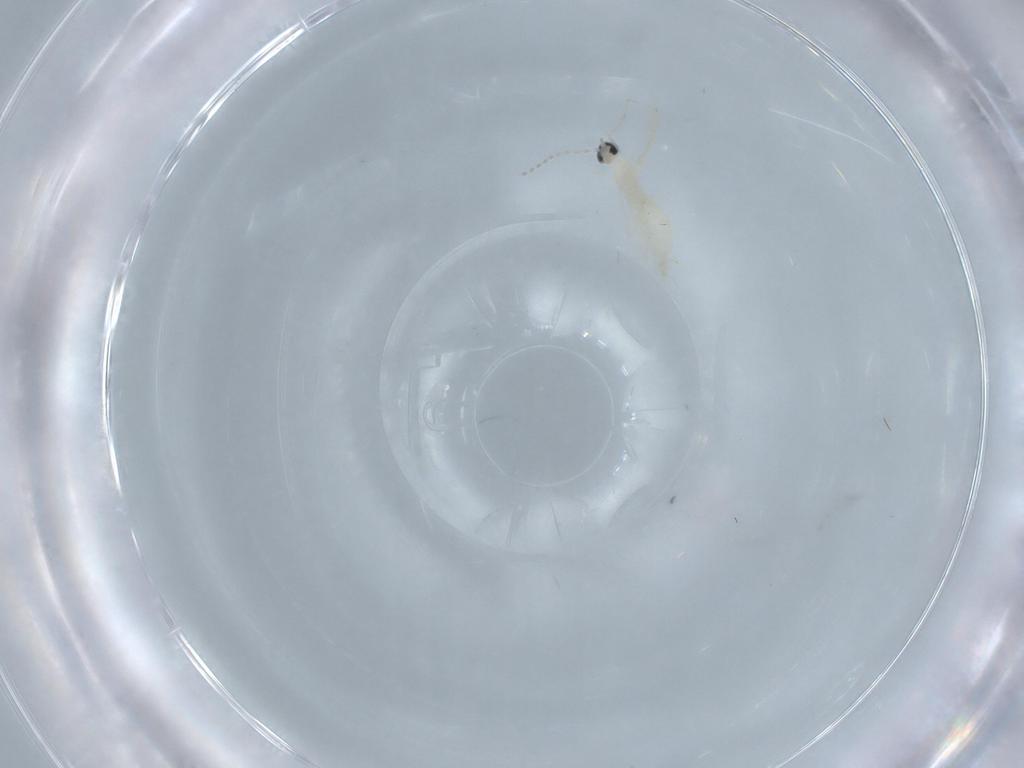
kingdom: Animalia
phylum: Arthropoda
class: Insecta
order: Diptera
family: Cecidomyiidae
